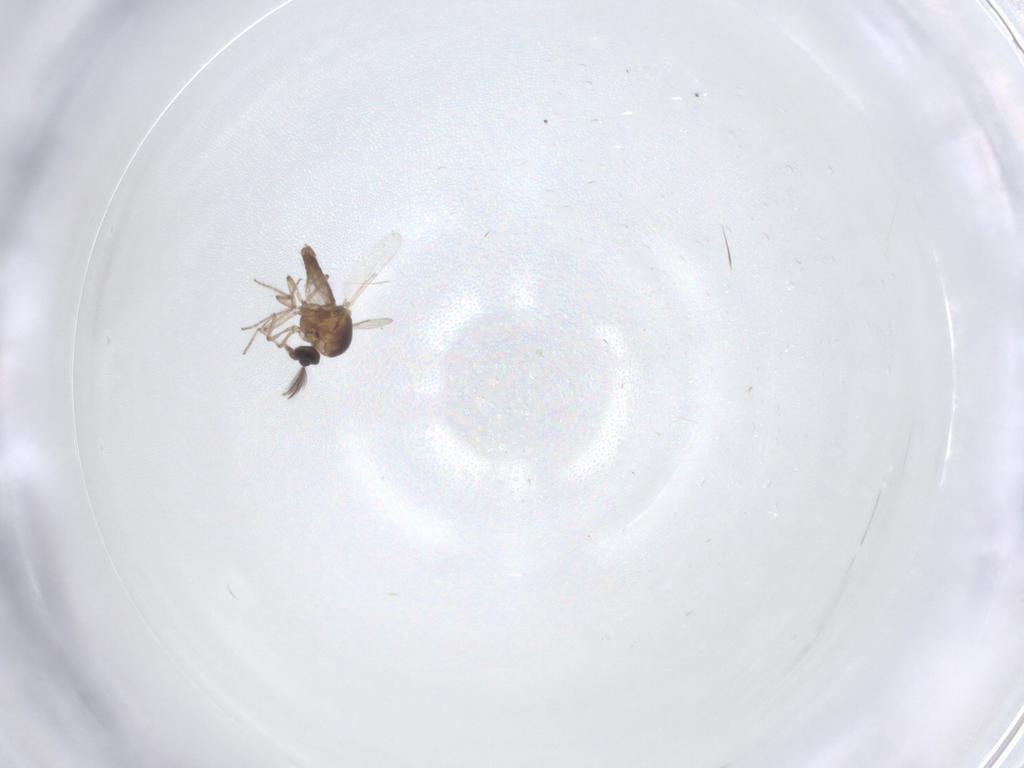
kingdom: Animalia
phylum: Arthropoda
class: Insecta
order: Diptera
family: Ceratopogonidae
